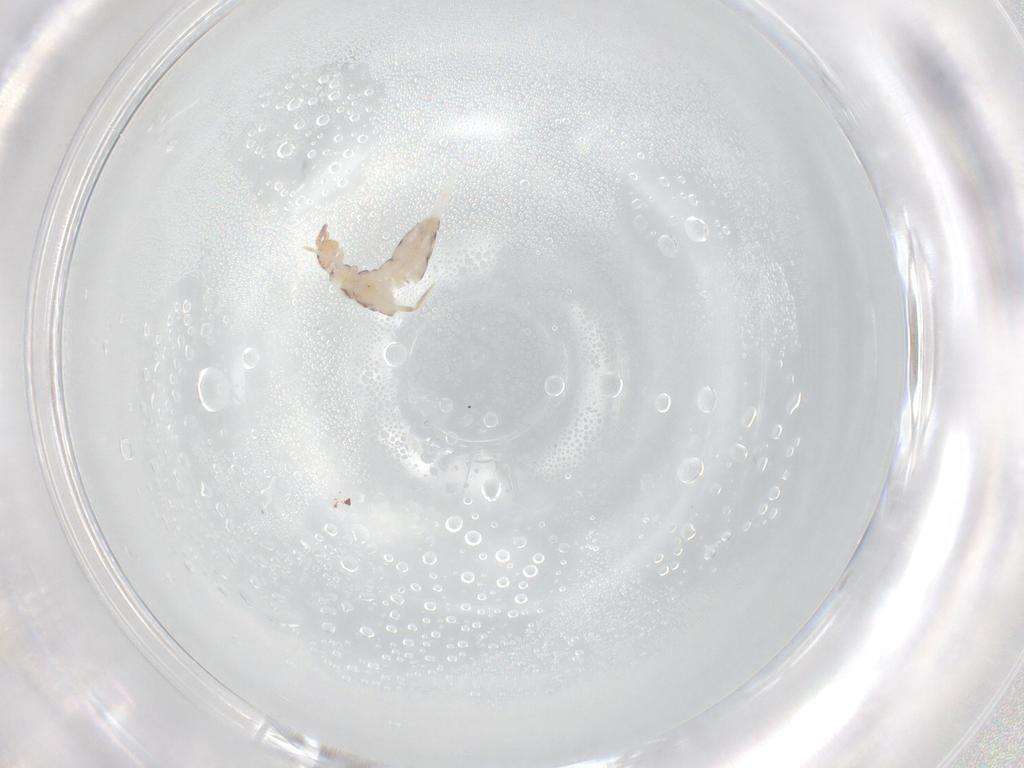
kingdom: Animalia
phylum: Arthropoda
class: Collembola
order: Entomobryomorpha
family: Entomobryidae
